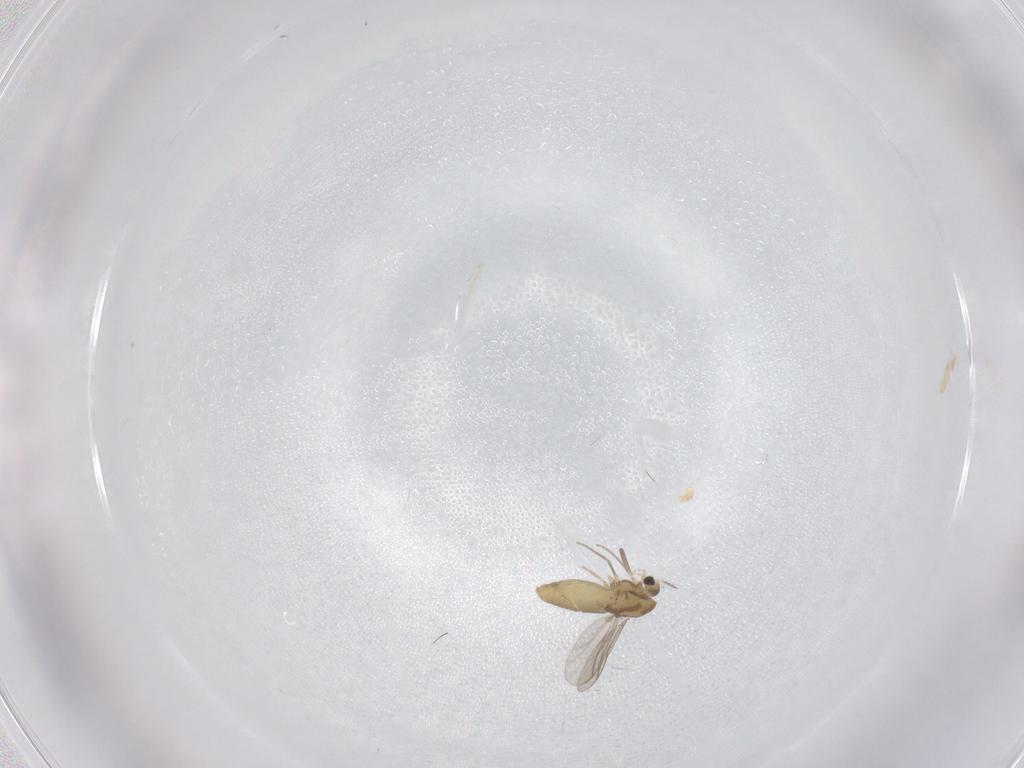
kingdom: Animalia
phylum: Arthropoda
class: Insecta
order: Diptera
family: Chironomidae
